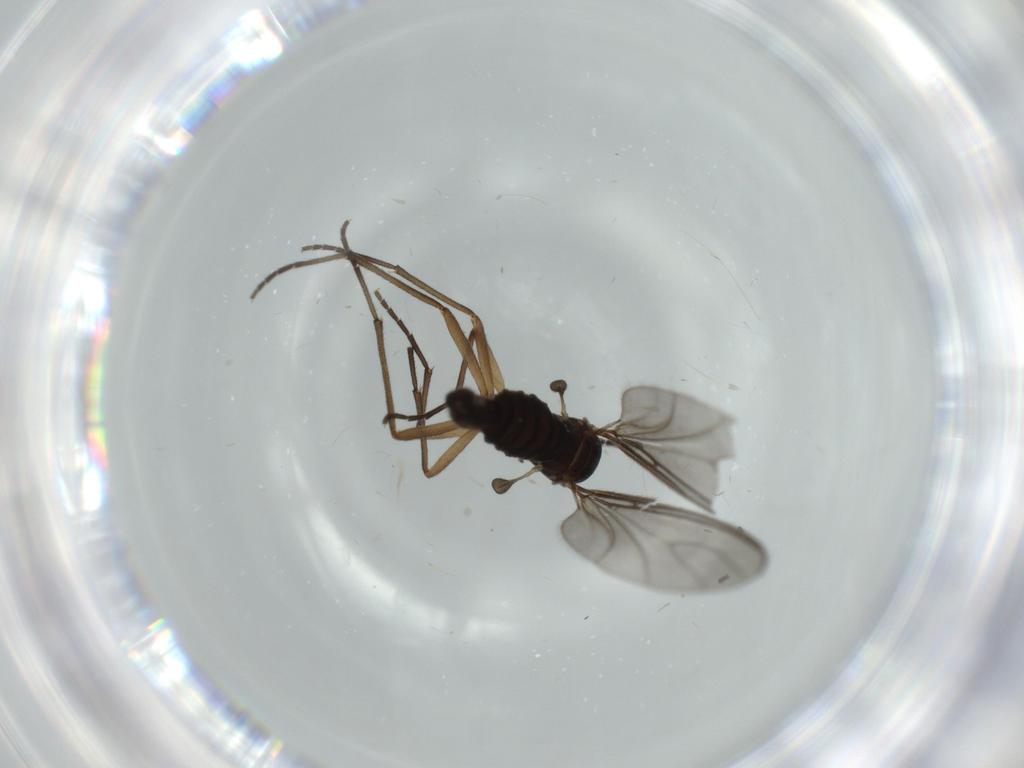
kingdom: Animalia
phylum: Arthropoda
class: Insecta
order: Diptera
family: Sciaridae
